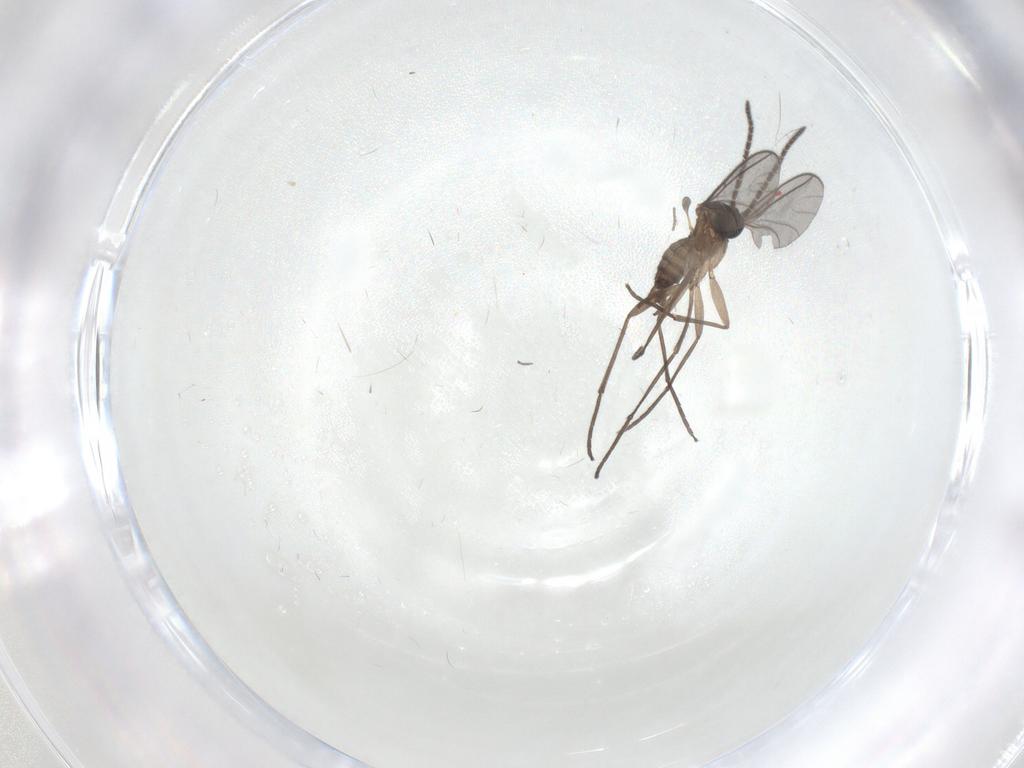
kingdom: Animalia
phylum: Arthropoda
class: Insecta
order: Diptera
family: Sciaridae
